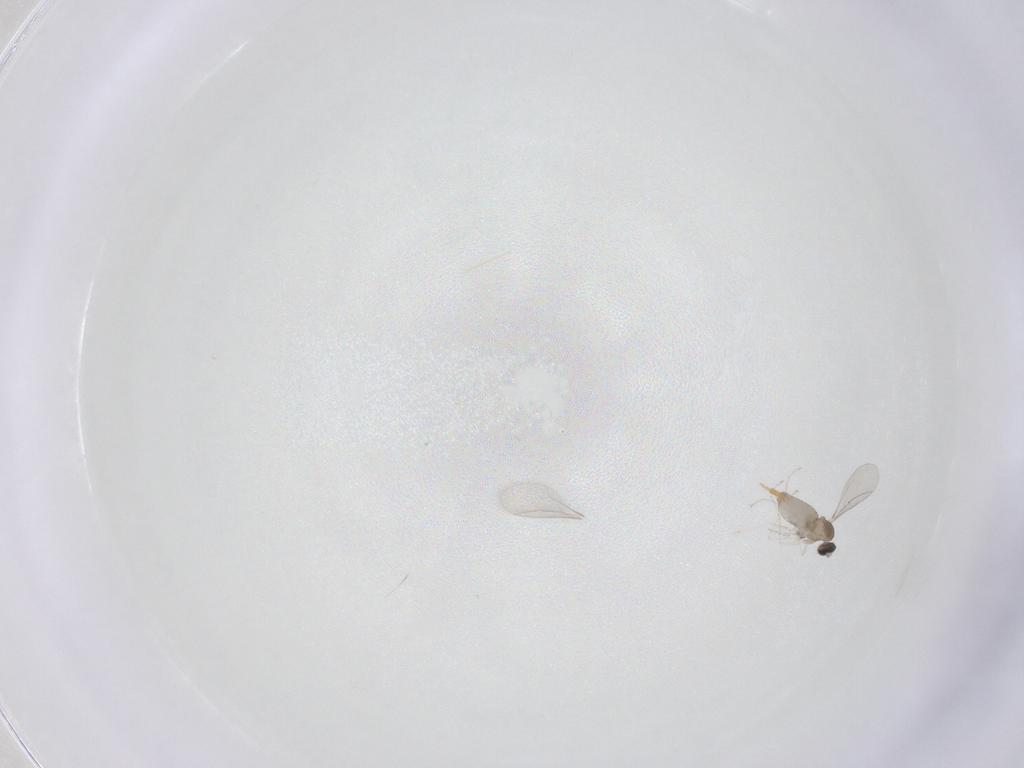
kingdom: Animalia
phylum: Arthropoda
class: Insecta
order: Diptera
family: Cecidomyiidae
